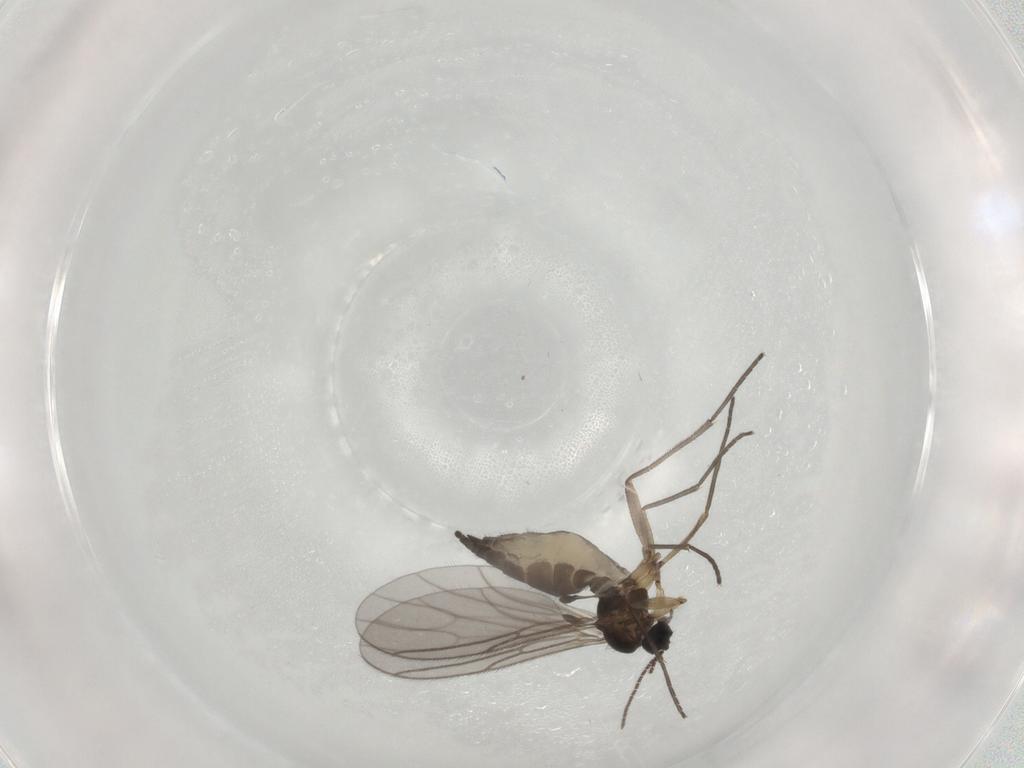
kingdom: Animalia
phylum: Arthropoda
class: Insecta
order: Diptera
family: Sciaridae
